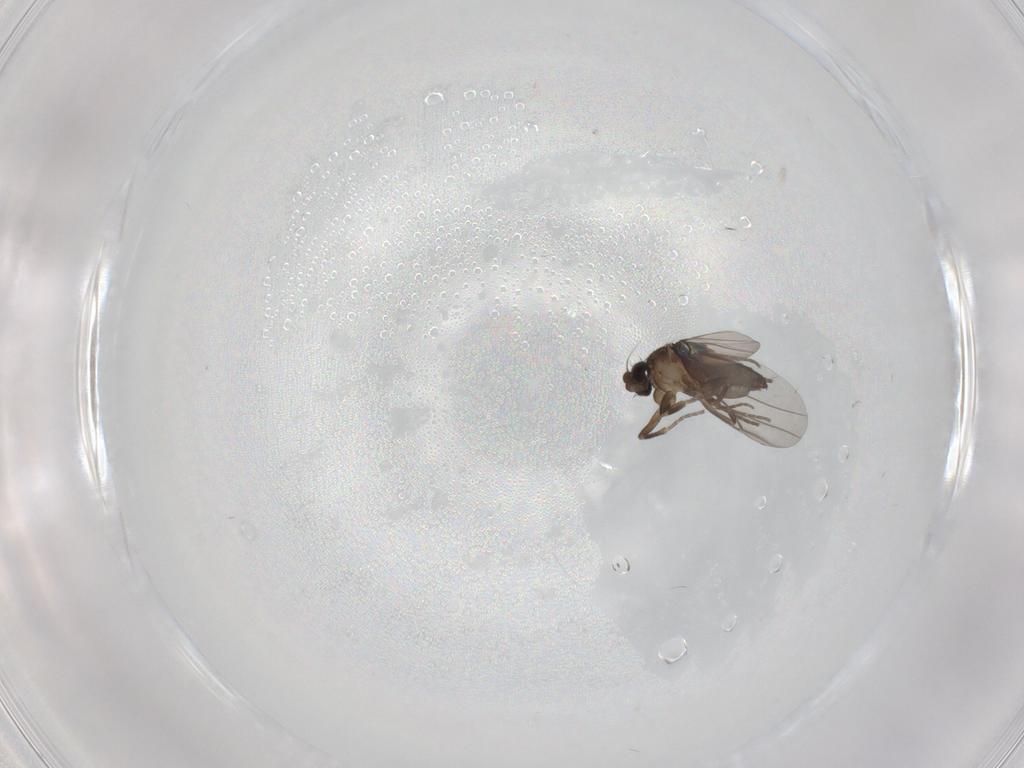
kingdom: Animalia
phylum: Arthropoda
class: Insecta
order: Diptera
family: Phoridae
